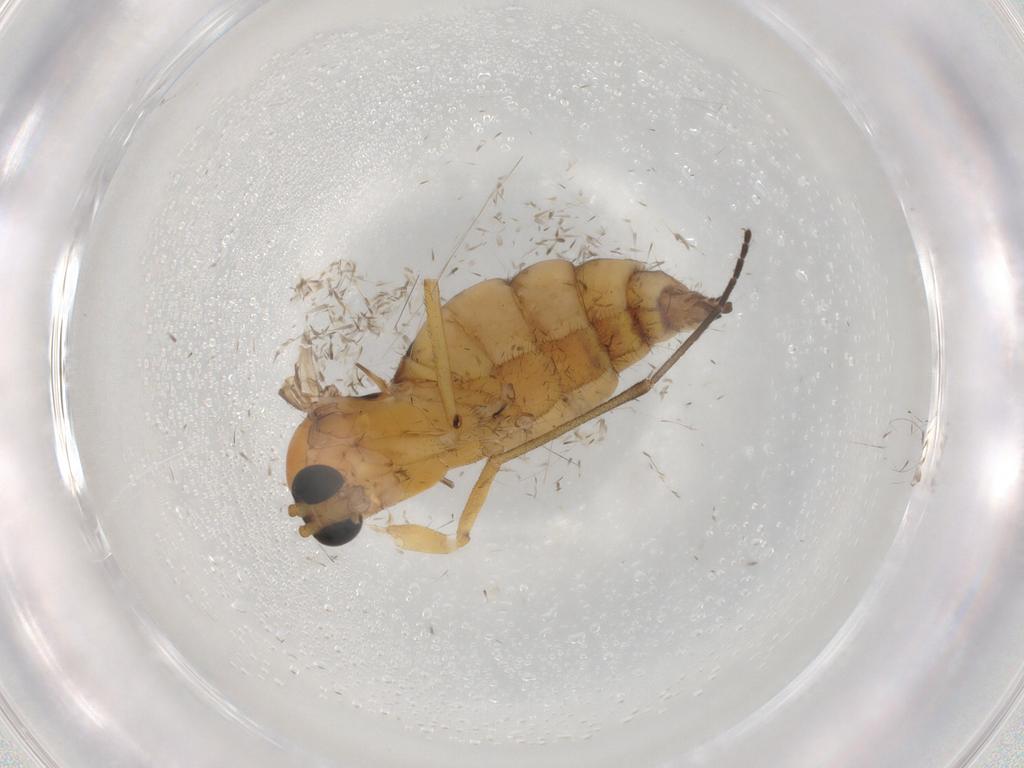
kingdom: Animalia
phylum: Arthropoda
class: Insecta
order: Diptera
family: Sciaridae
